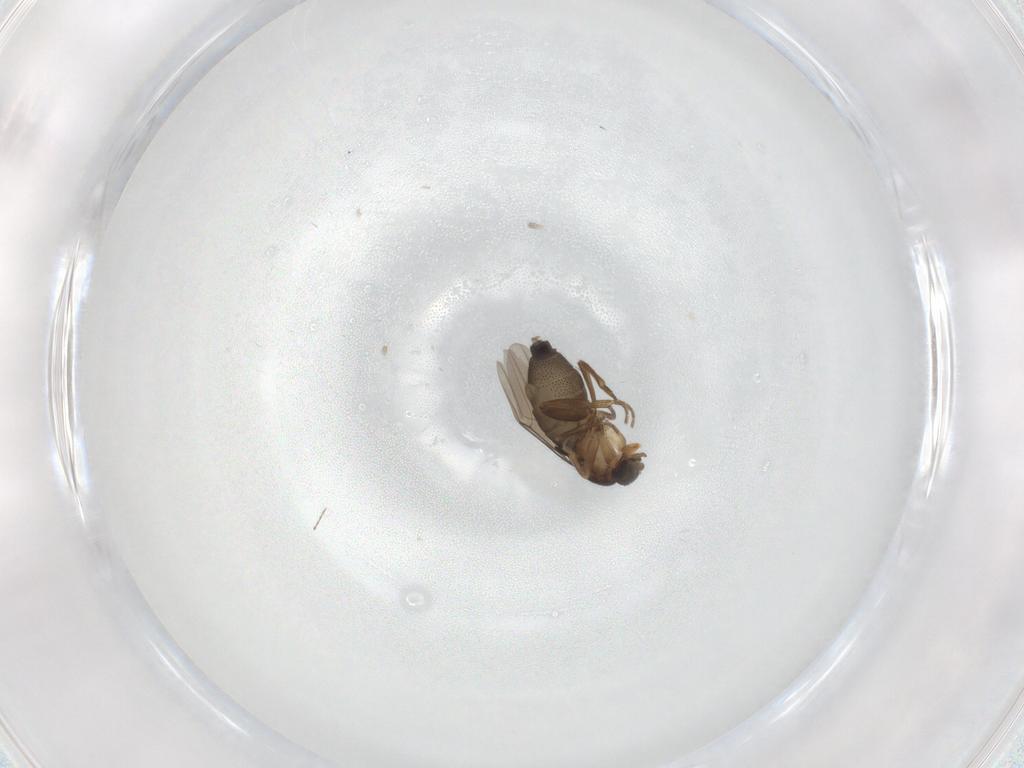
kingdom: Animalia
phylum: Arthropoda
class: Insecta
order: Diptera
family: Phoridae
